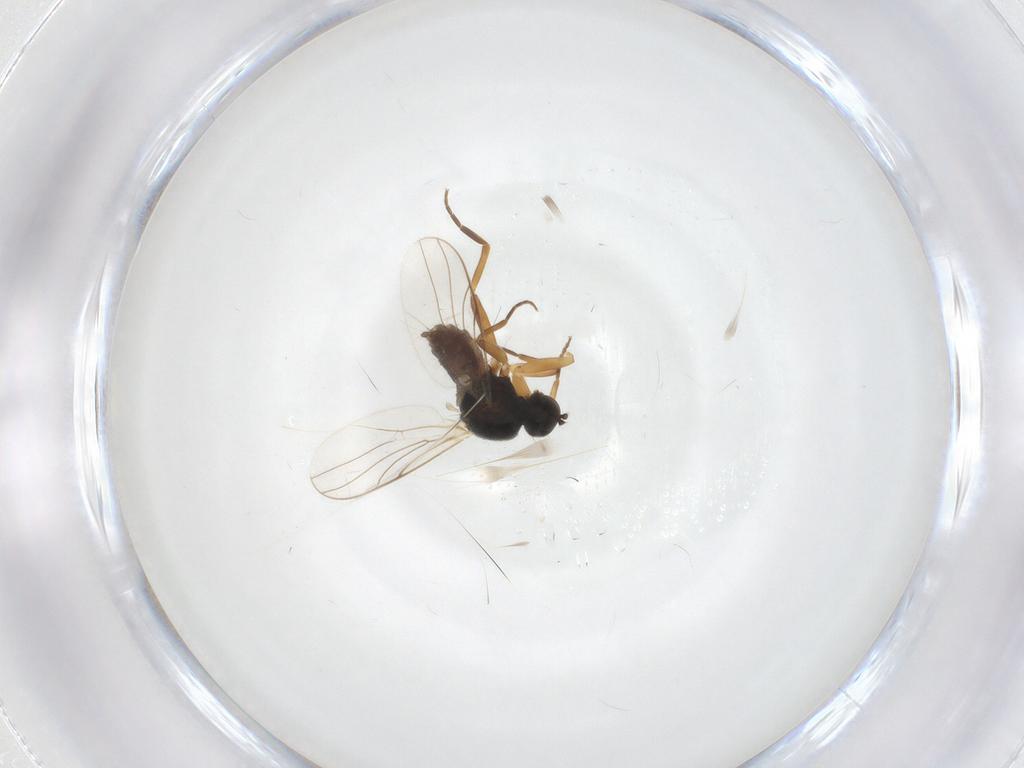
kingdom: Animalia
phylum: Arthropoda
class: Insecta
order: Diptera
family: Hybotidae
